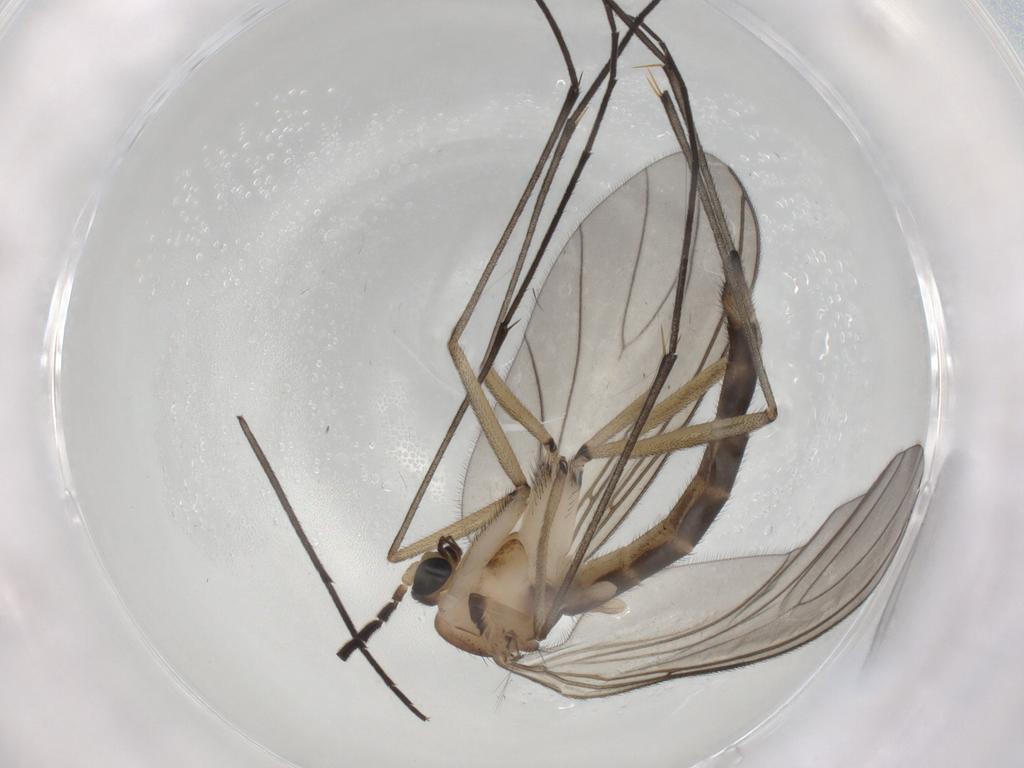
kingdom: Animalia
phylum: Arthropoda
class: Insecta
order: Diptera
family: Sciaridae
